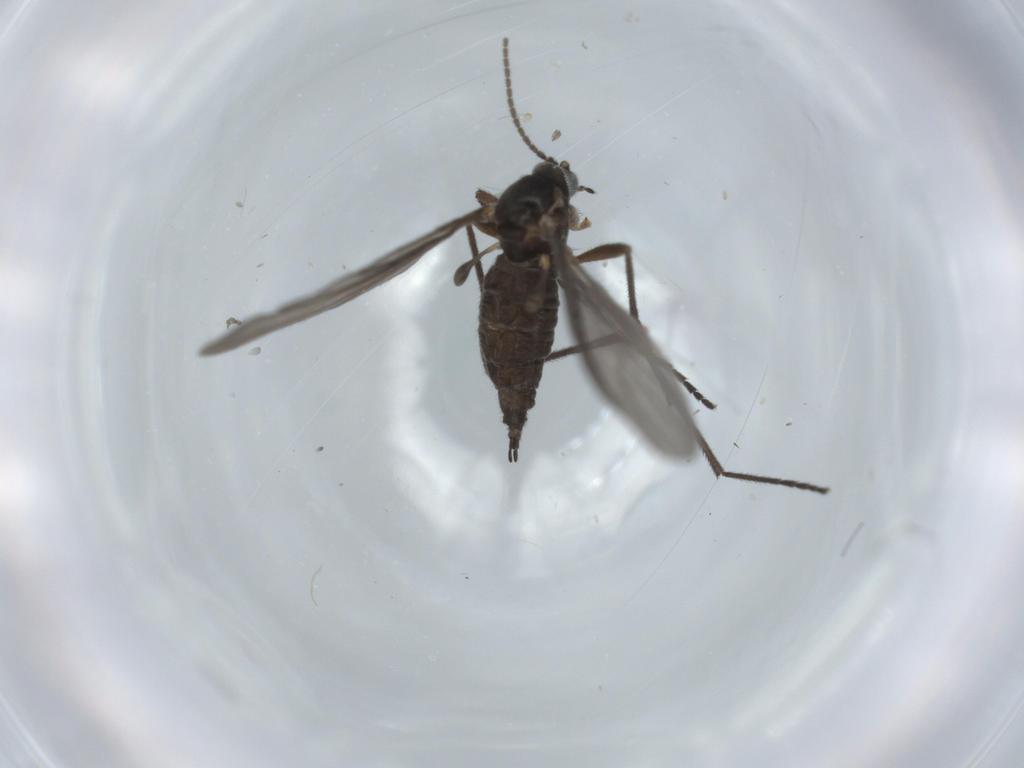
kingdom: Animalia
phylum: Arthropoda
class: Insecta
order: Diptera
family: Sciaridae
